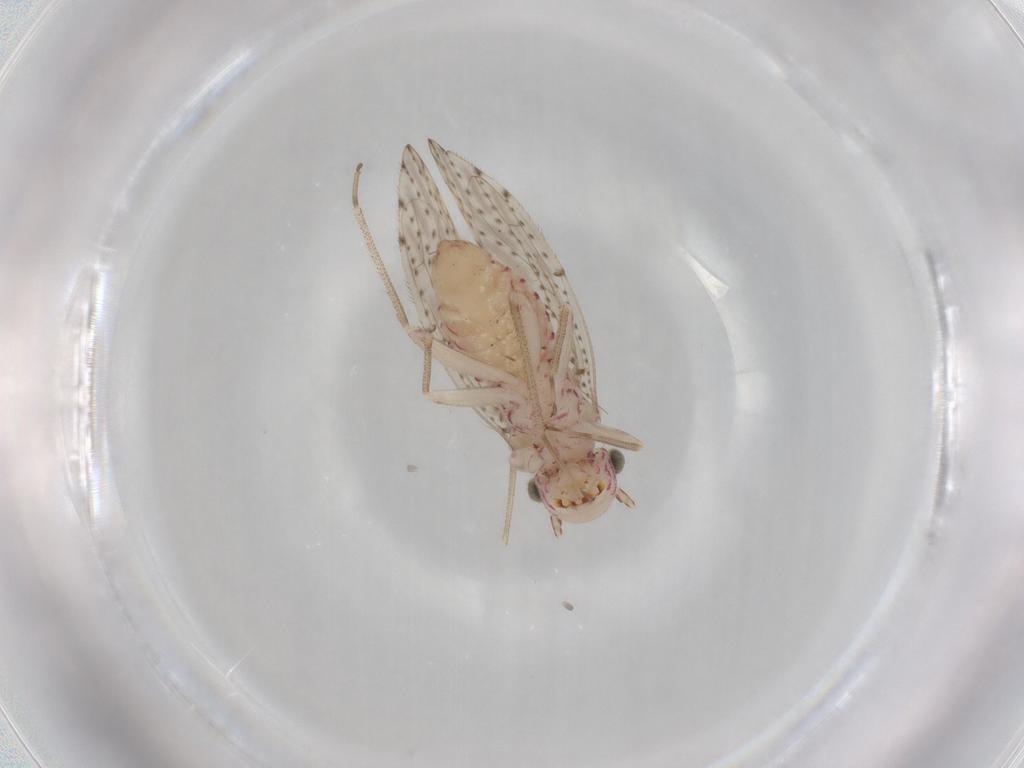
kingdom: Animalia
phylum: Arthropoda
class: Insecta
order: Psocodea
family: Philotarsidae
